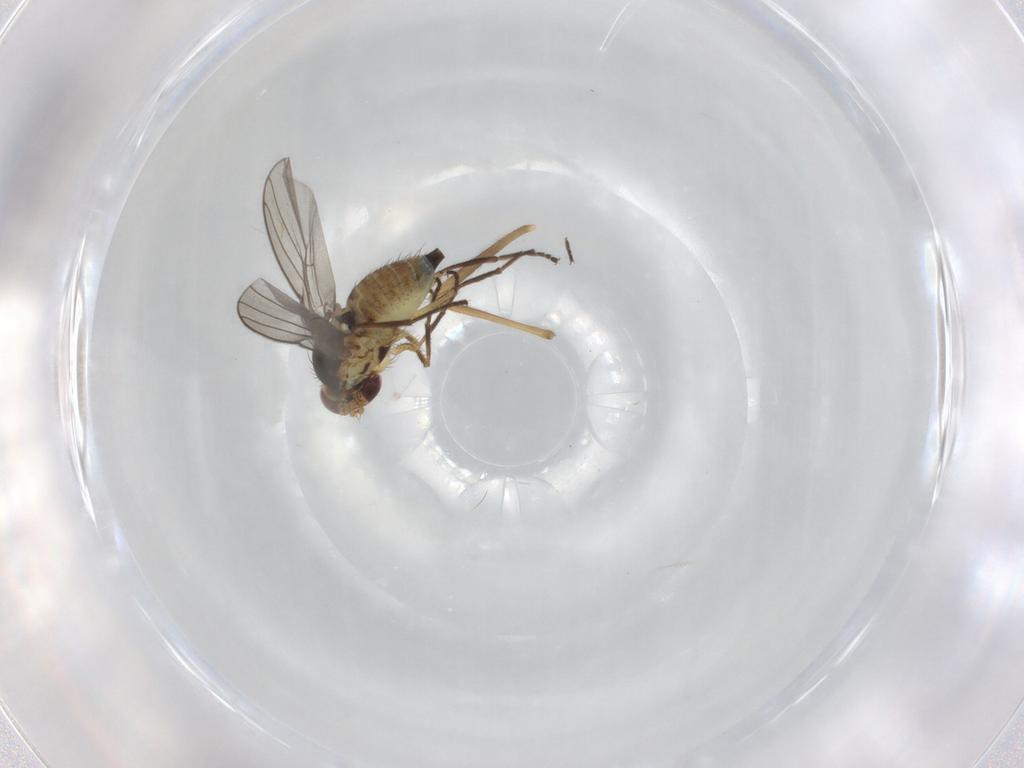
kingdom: Animalia
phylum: Arthropoda
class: Insecta
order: Diptera
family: Agromyzidae
